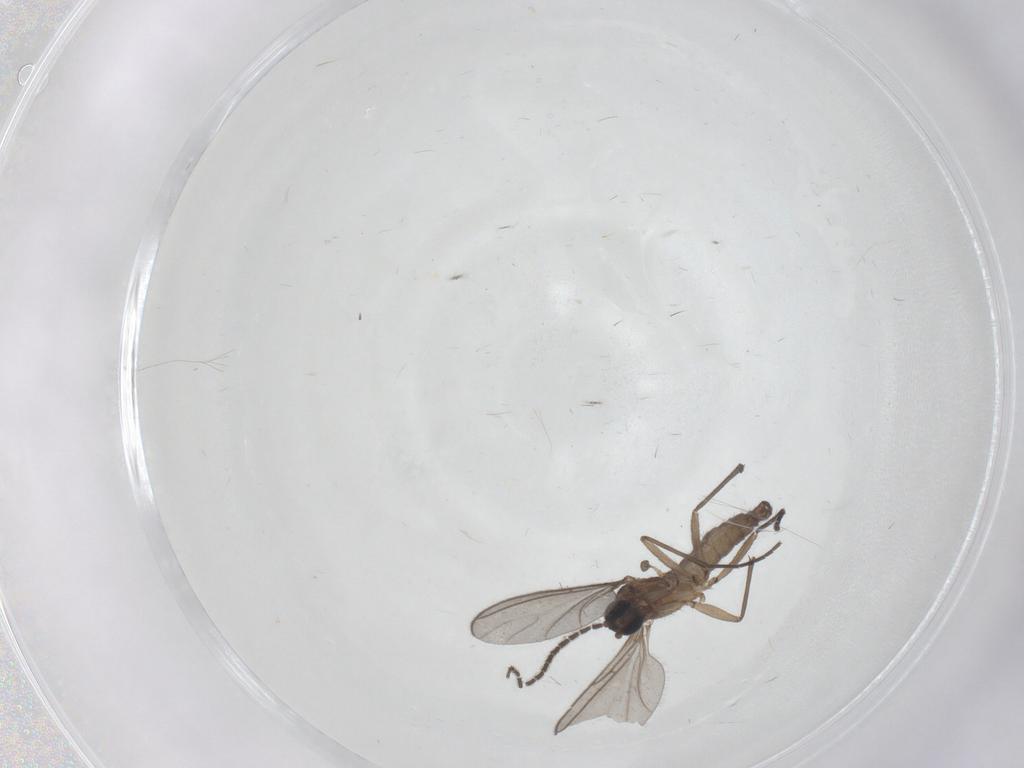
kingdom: Animalia
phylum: Arthropoda
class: Insecta
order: Diptera
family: Sciaridae
